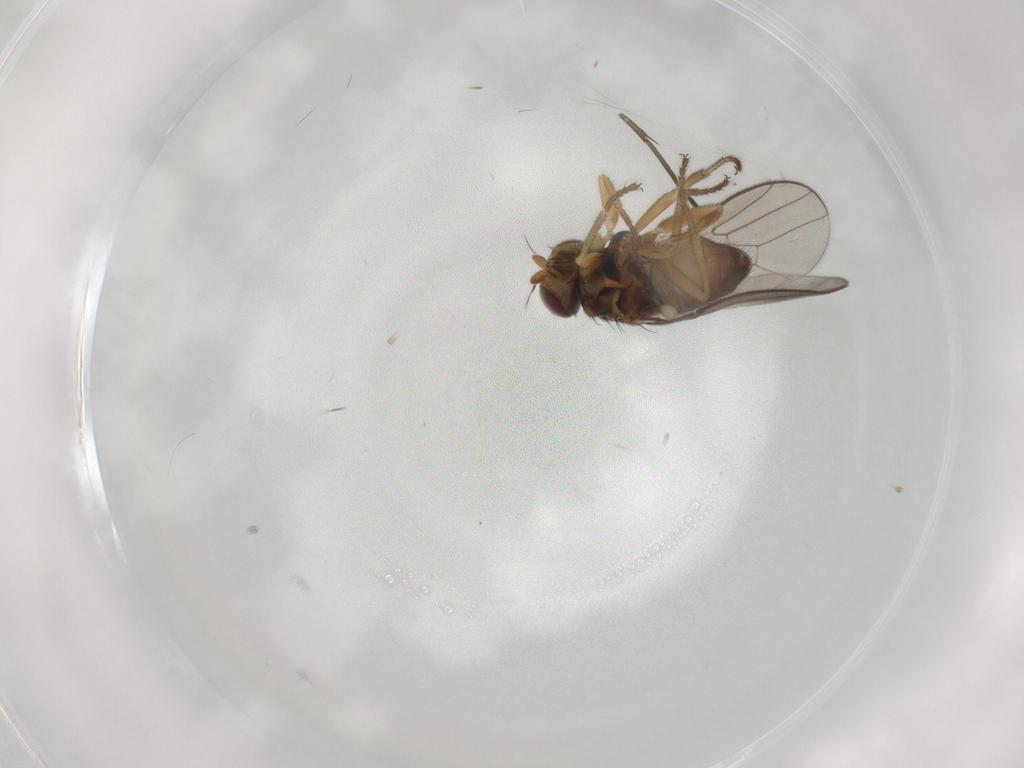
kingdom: Animalia
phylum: Arthropoda
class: Insecta
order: Diptera
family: Chloropidae
